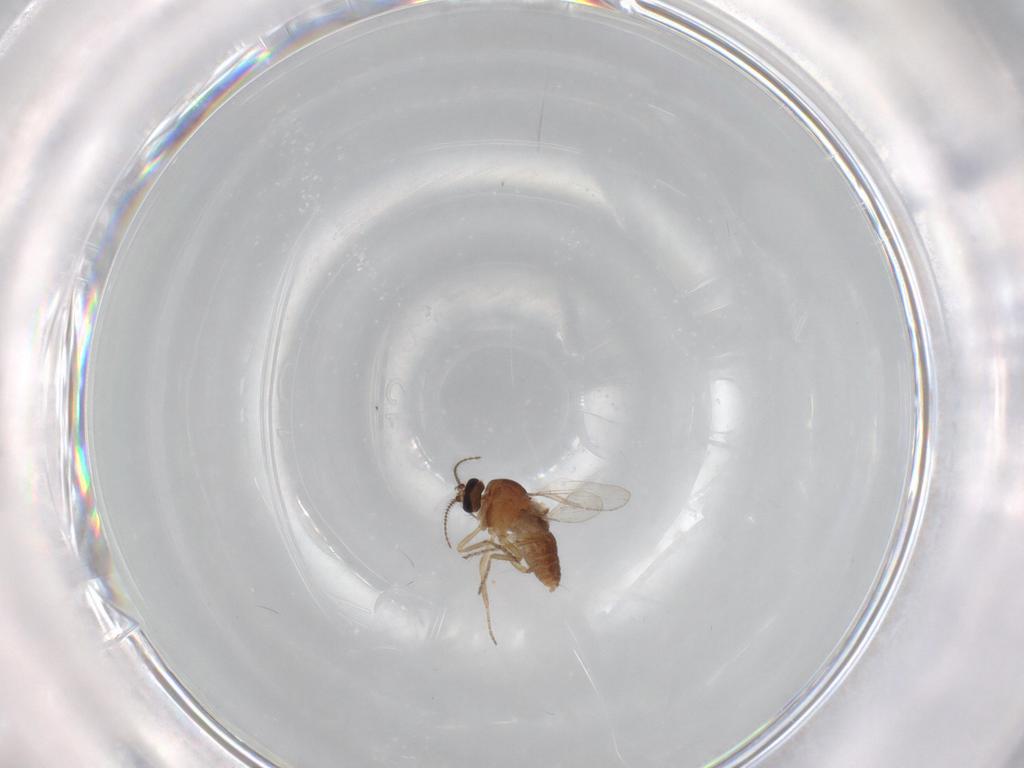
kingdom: Animalia
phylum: Arthropoda
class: Insecta
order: Diptera
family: Ceratopogonidae
